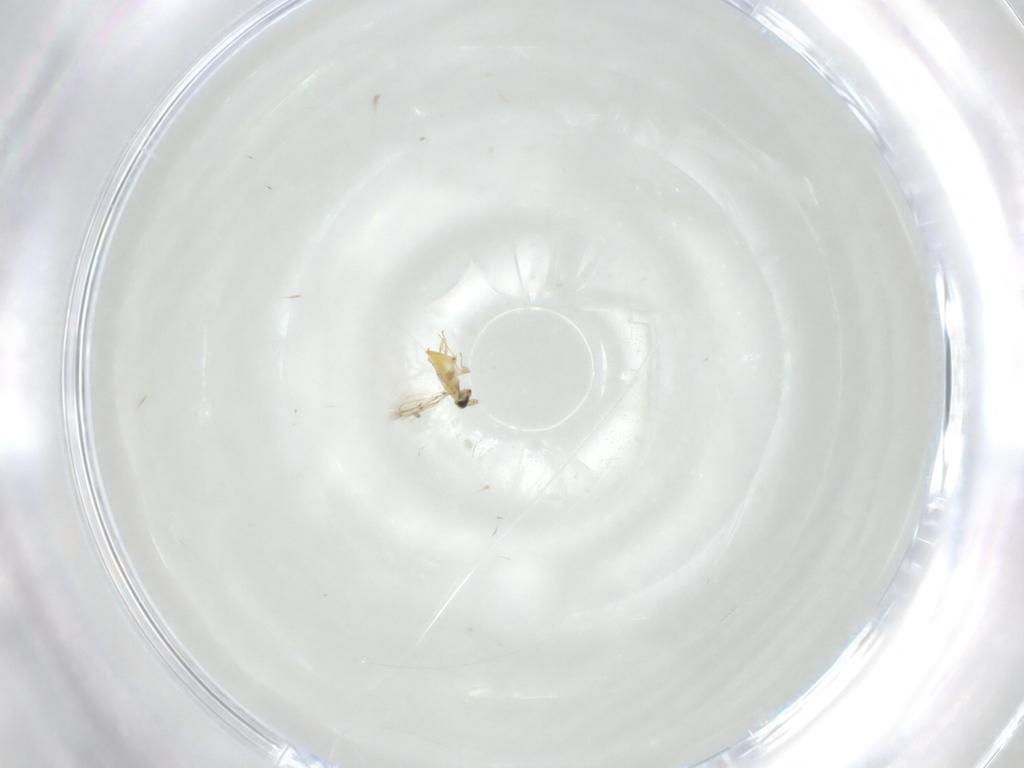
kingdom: Animalia
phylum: Arthropoda
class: Insecta
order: Hymenoptera
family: Trichogrammatidae
